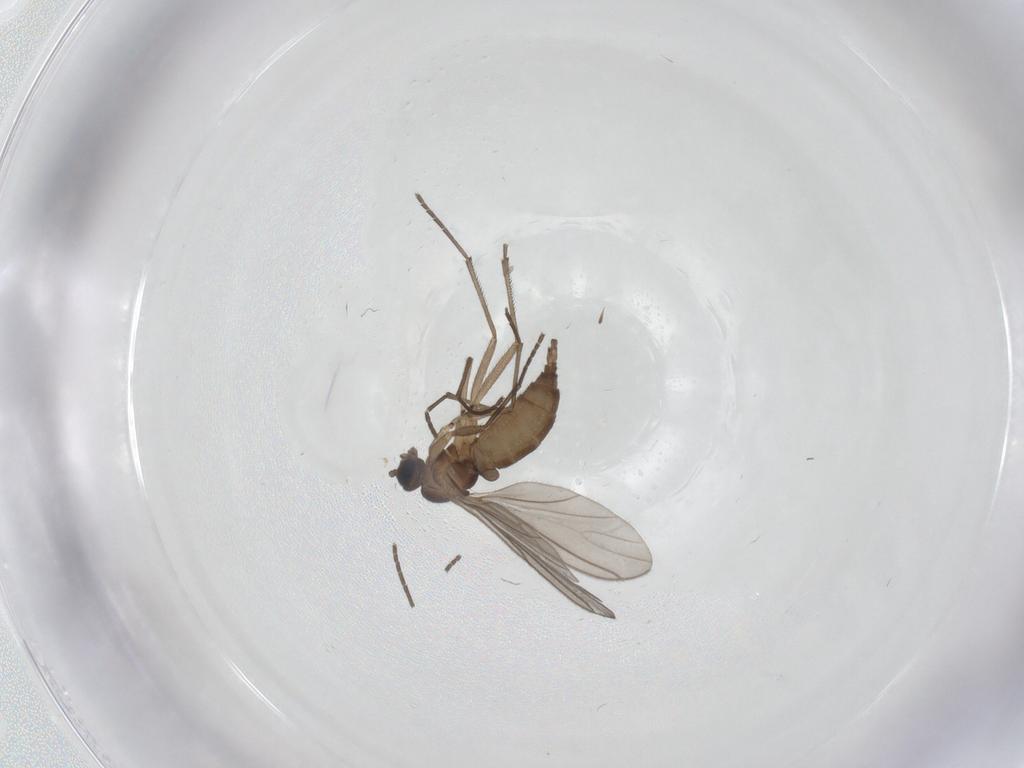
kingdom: Animalia
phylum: Arthropoda
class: Insecta
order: Diptera
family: Sciaridae
